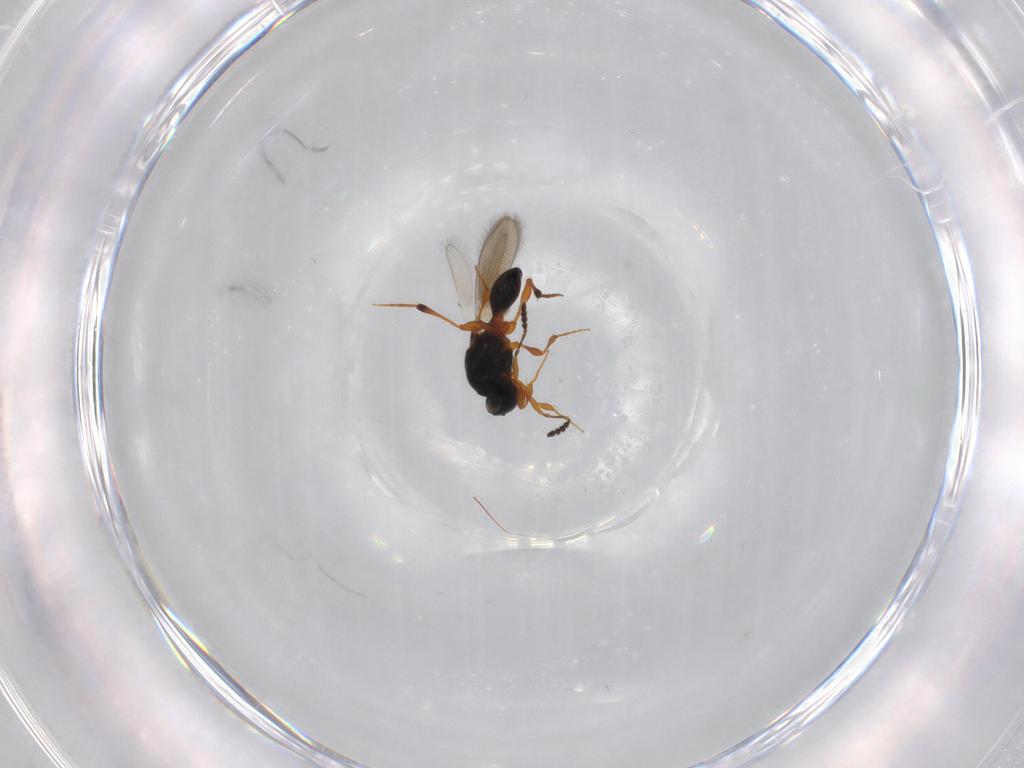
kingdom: Animalia
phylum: Arthropoda
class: Insecta
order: Hymenoptera
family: Platygastridae
